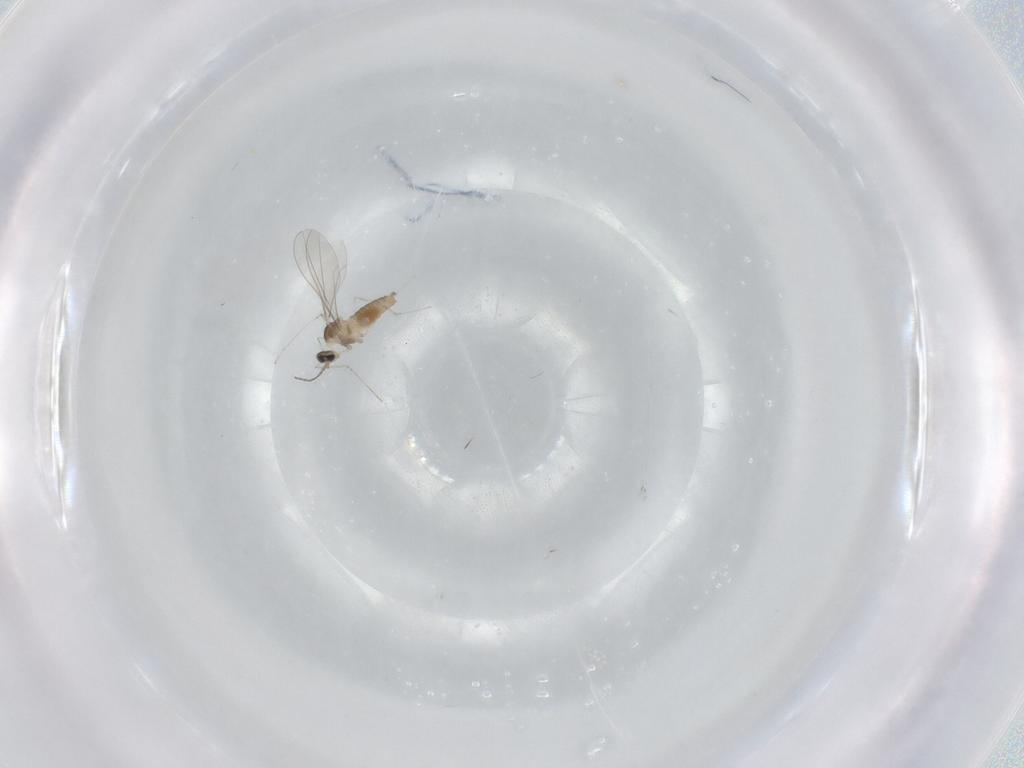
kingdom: Animalia
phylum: Arthropoda
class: Insecta
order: Diptera
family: Cecidomyiidae
